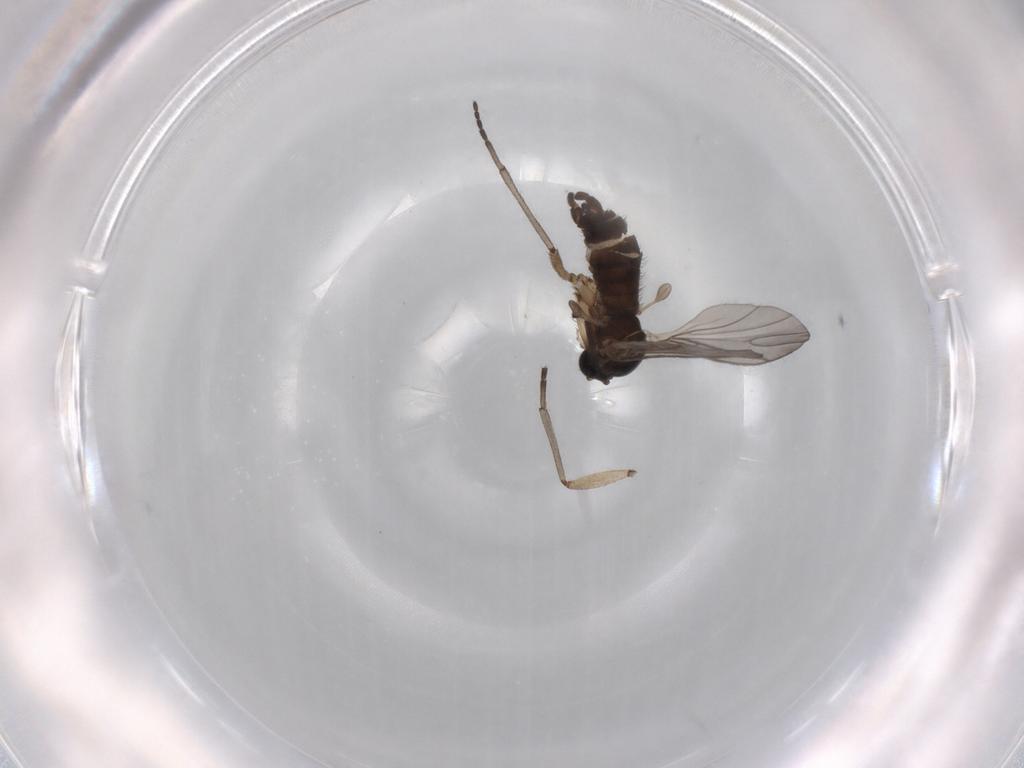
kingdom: Animalia
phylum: Arthropoda
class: Insecta
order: Diptera
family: Sciaridae
